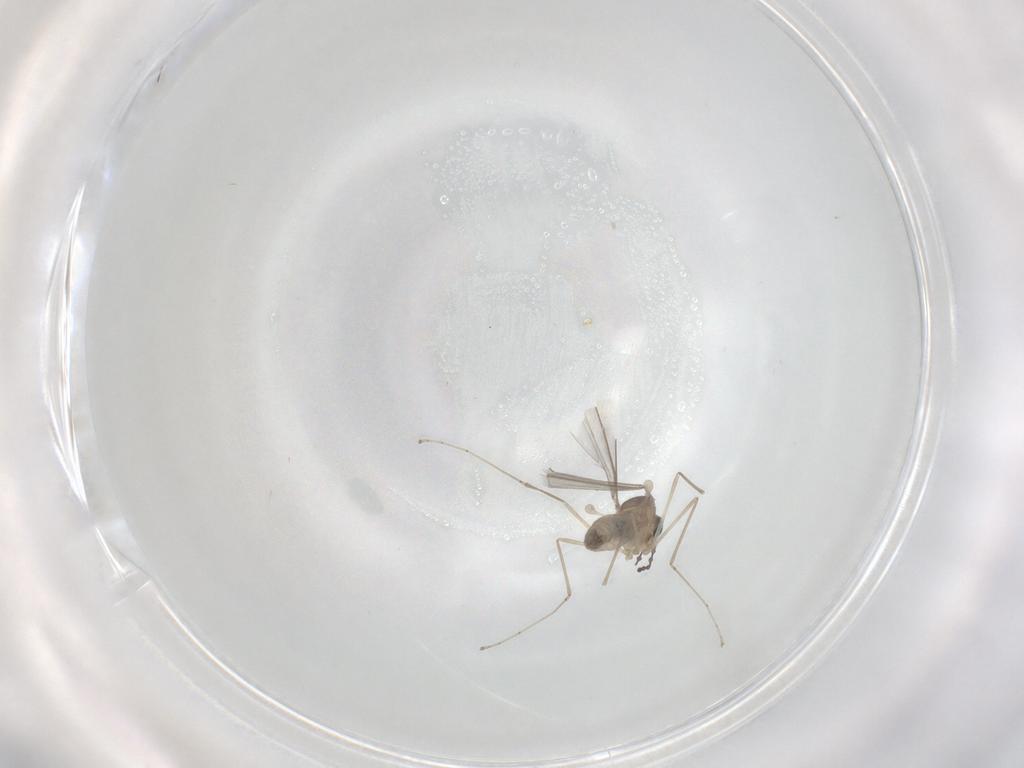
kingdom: Animalia
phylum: Arthropoda
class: Insecta
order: Diptera
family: Cecidomyiidae
